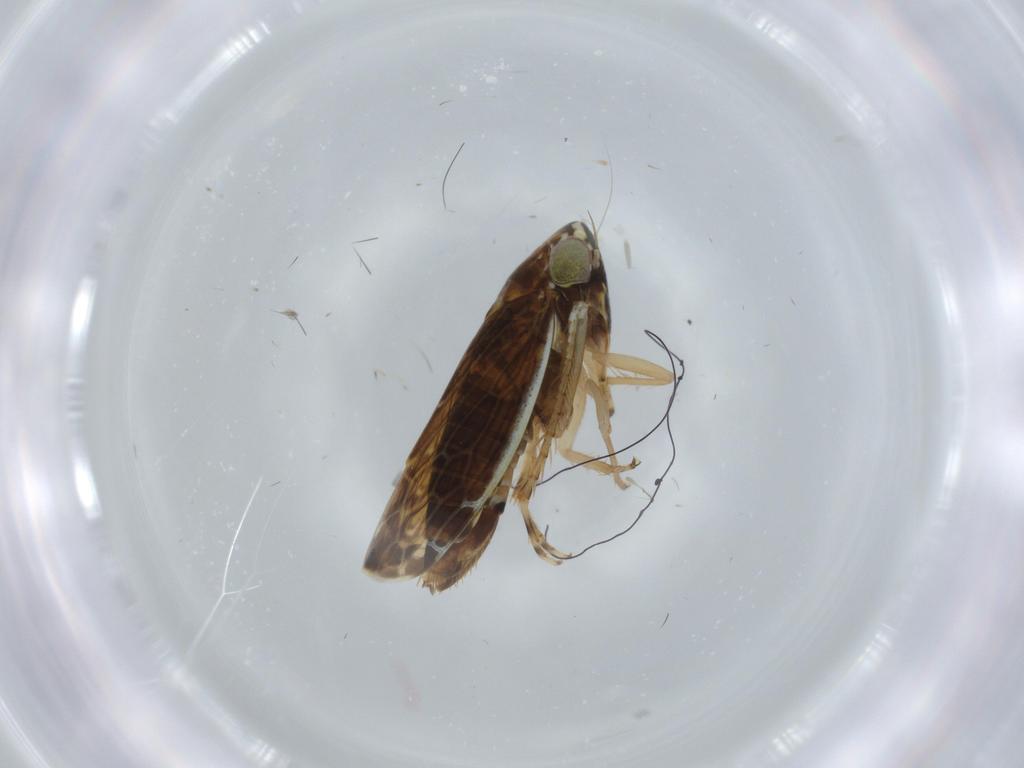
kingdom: Animalia
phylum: Arthropoda
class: Insecta
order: Hemiptera
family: Cicadellidae
